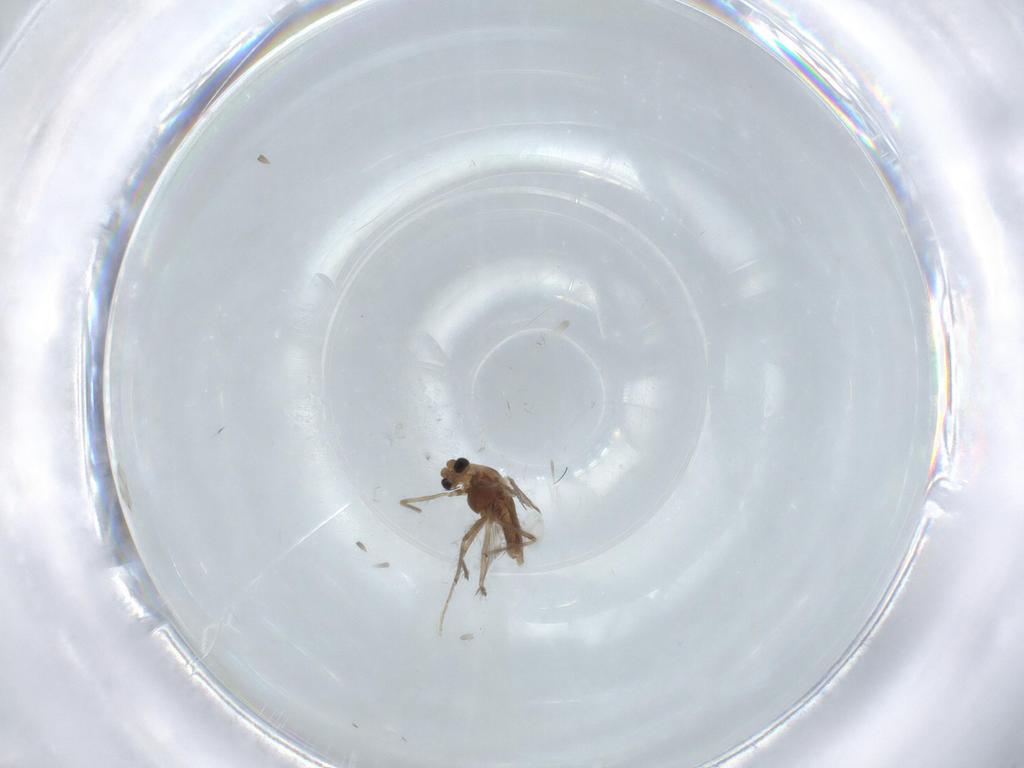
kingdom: Animalia
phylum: Arthropoda
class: Insecta
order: Diptera
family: Chironomidae
